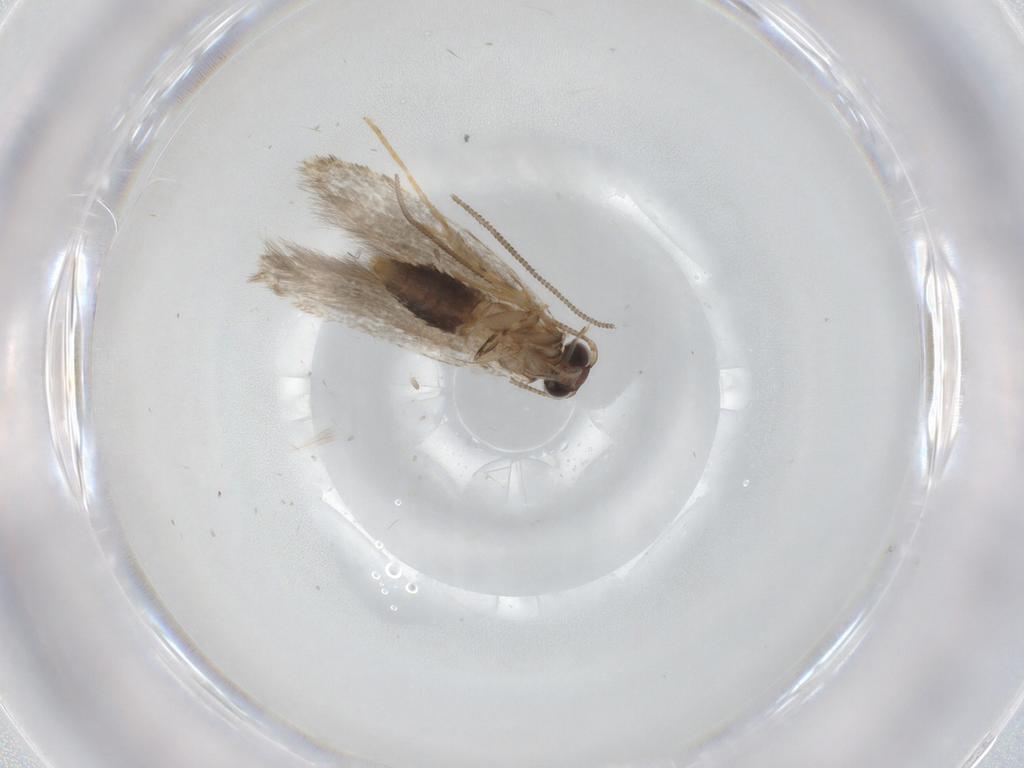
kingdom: Animalia
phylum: Arthropoda
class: Insecta
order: Lepidoptera
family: Tineidae
